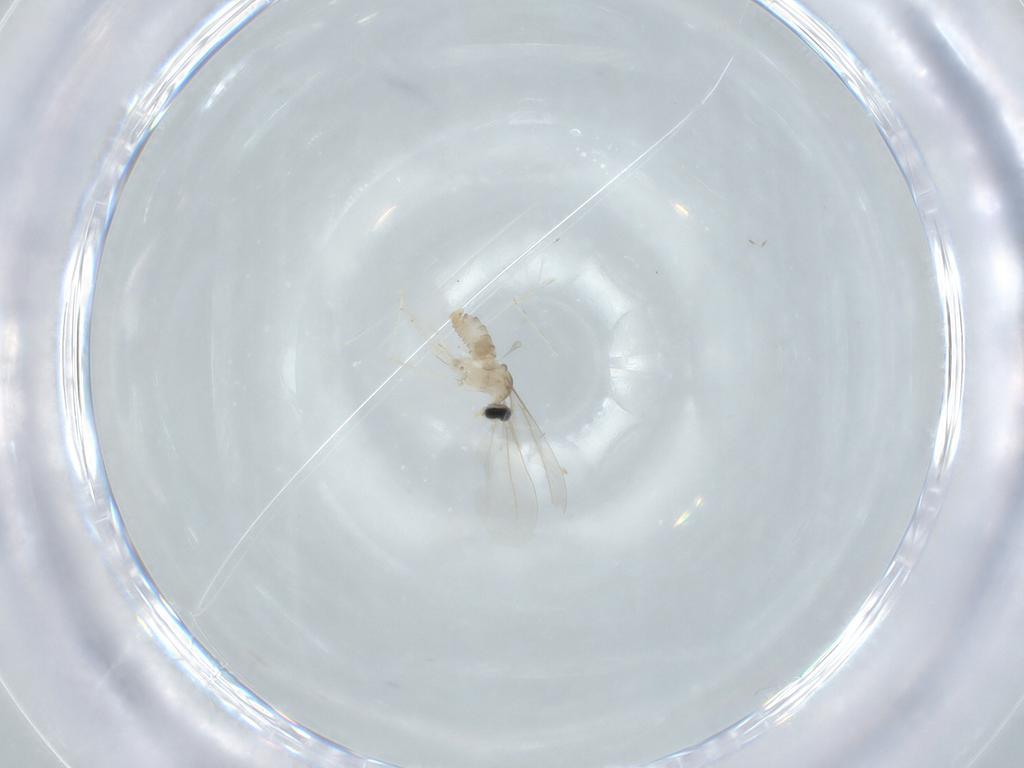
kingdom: Animalia
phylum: Arthropoda
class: Insecta
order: Diptera
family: Cecidomyiidae
